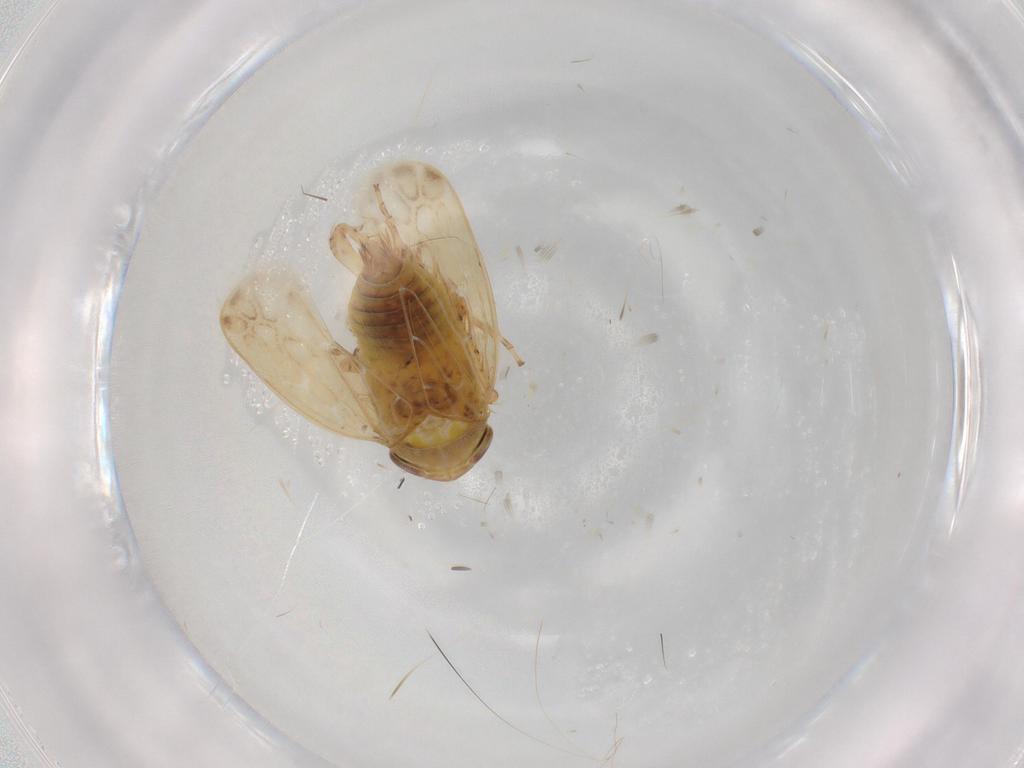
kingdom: Animalia
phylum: Arthropoda
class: Insecta
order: Hemiptera
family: Cicadellidae
